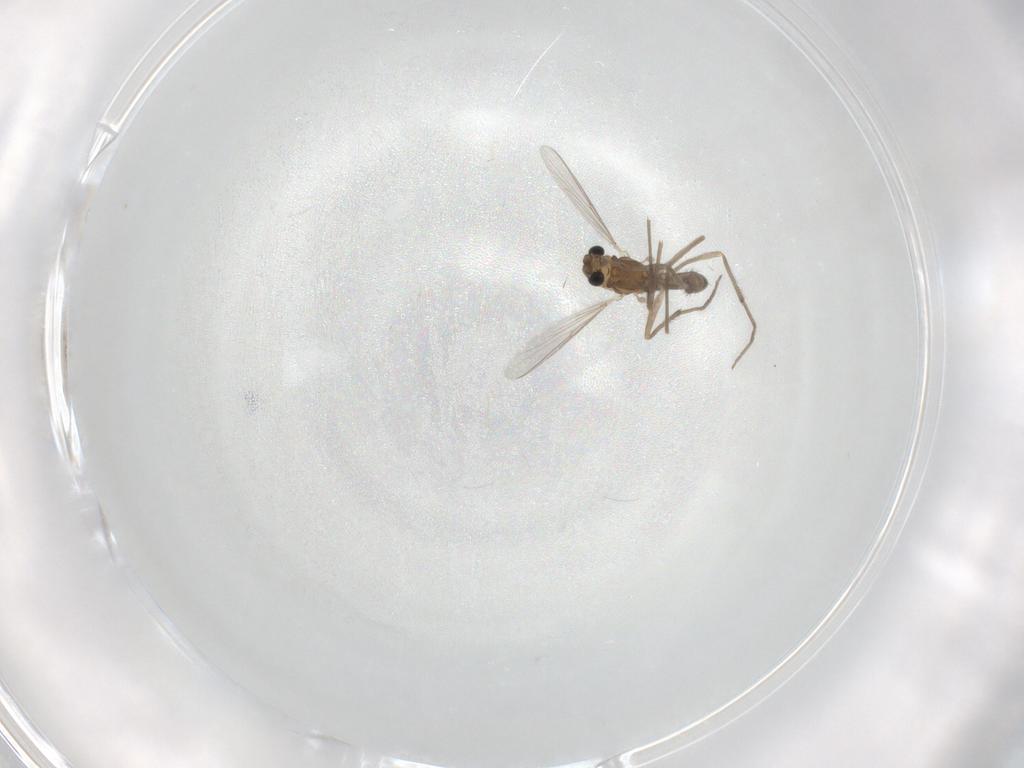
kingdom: Animalia
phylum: Arthropoda
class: Insecta
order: Diptera
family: Chironomidae
